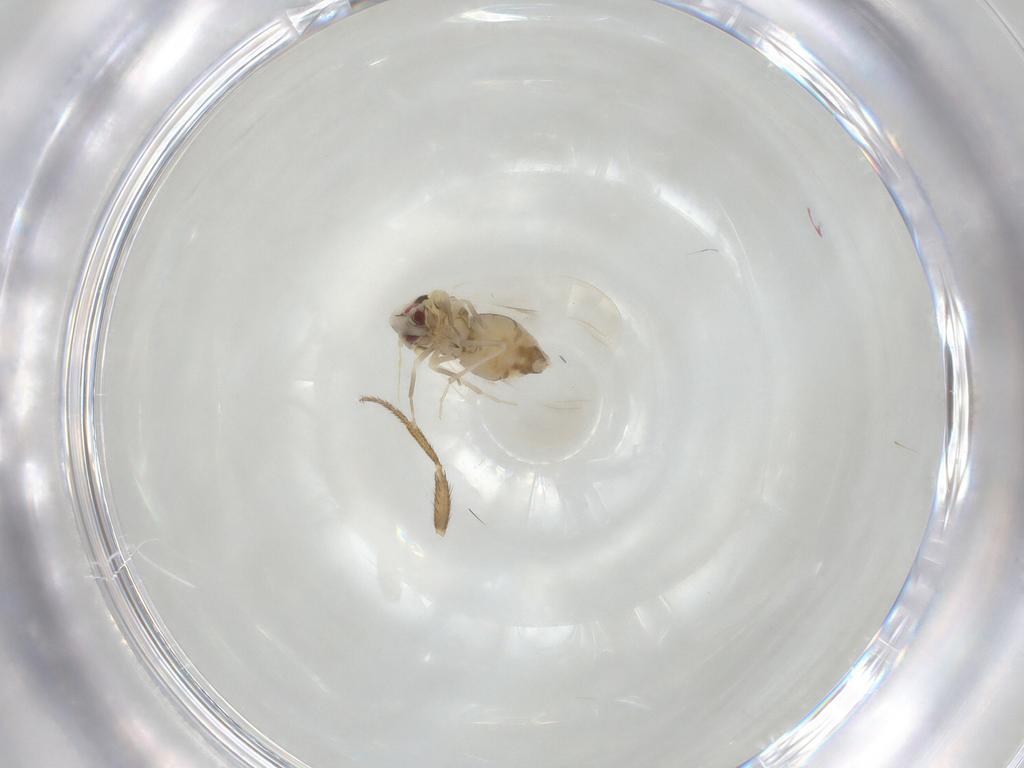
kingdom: Animalia
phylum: Arthropoda
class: Insecta
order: Hemiptera
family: Aleyrodidae
